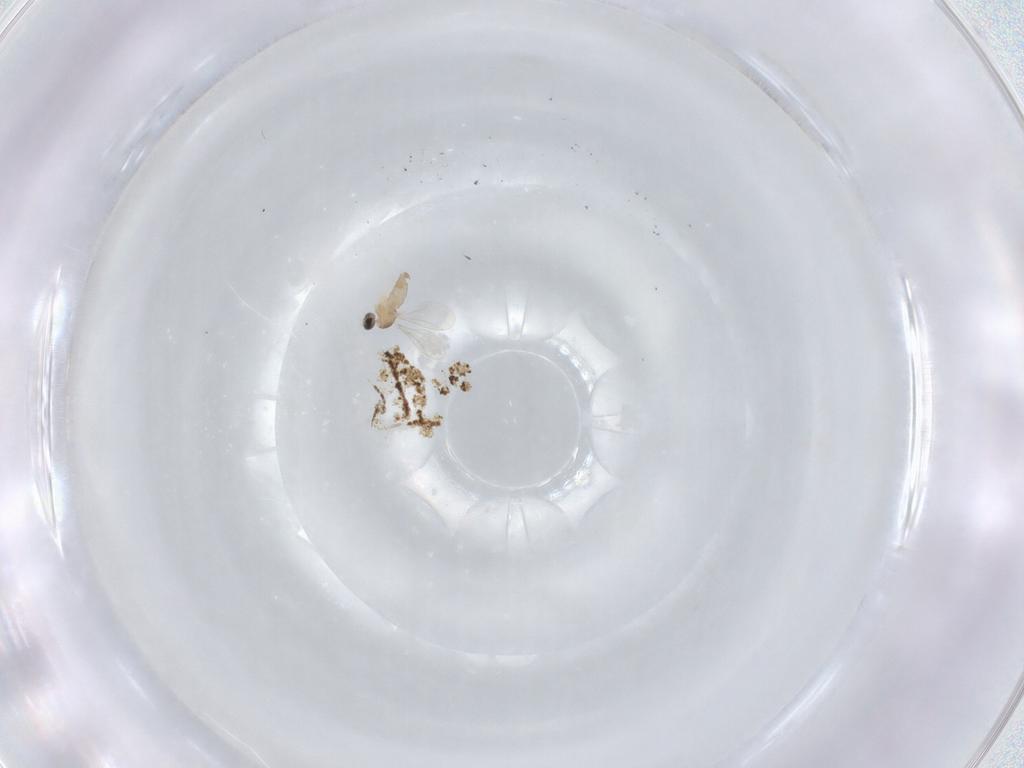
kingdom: Animalia
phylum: Arthropoda
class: Insecta
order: Diptera
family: Cecidomyiidae
